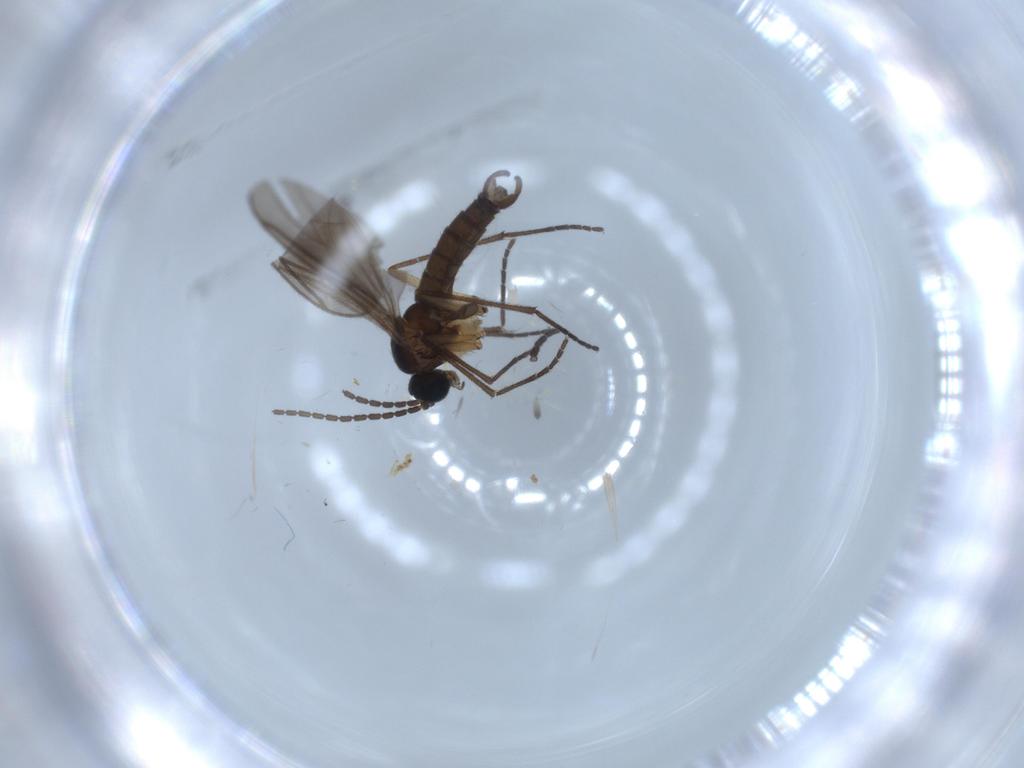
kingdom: Animalia
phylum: Arthropoda
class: Insecta
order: Diptera
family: Sciaridae
